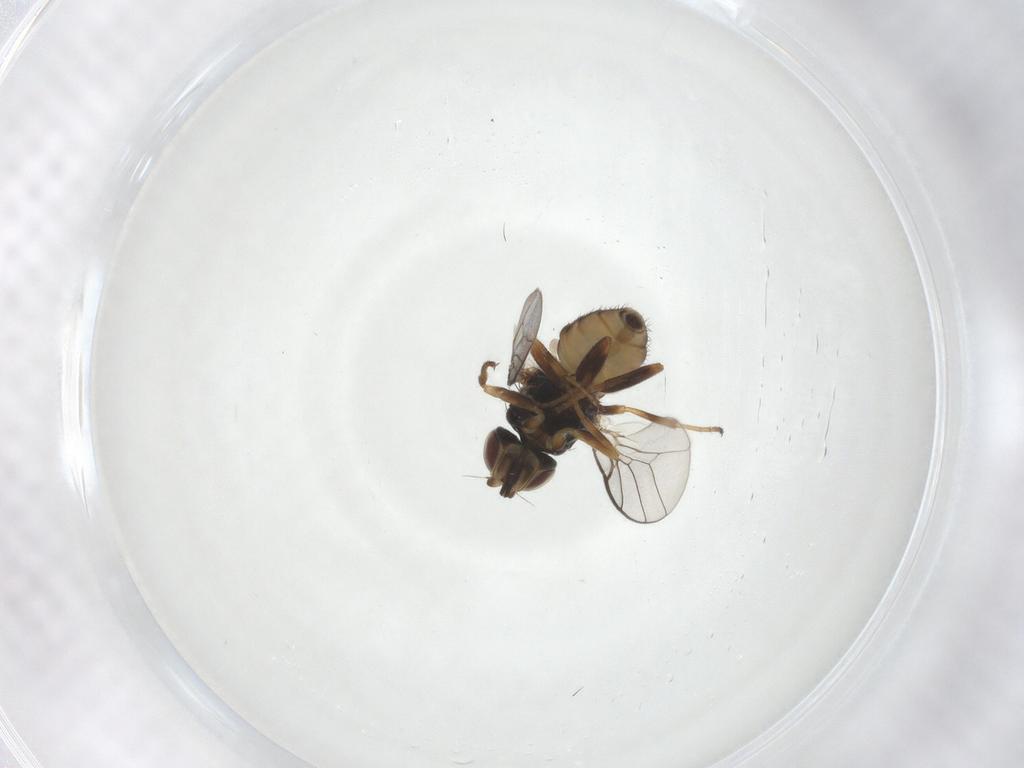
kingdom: Animalia
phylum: Arthropoda
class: Insecta
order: Diptera
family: Chloropidae
